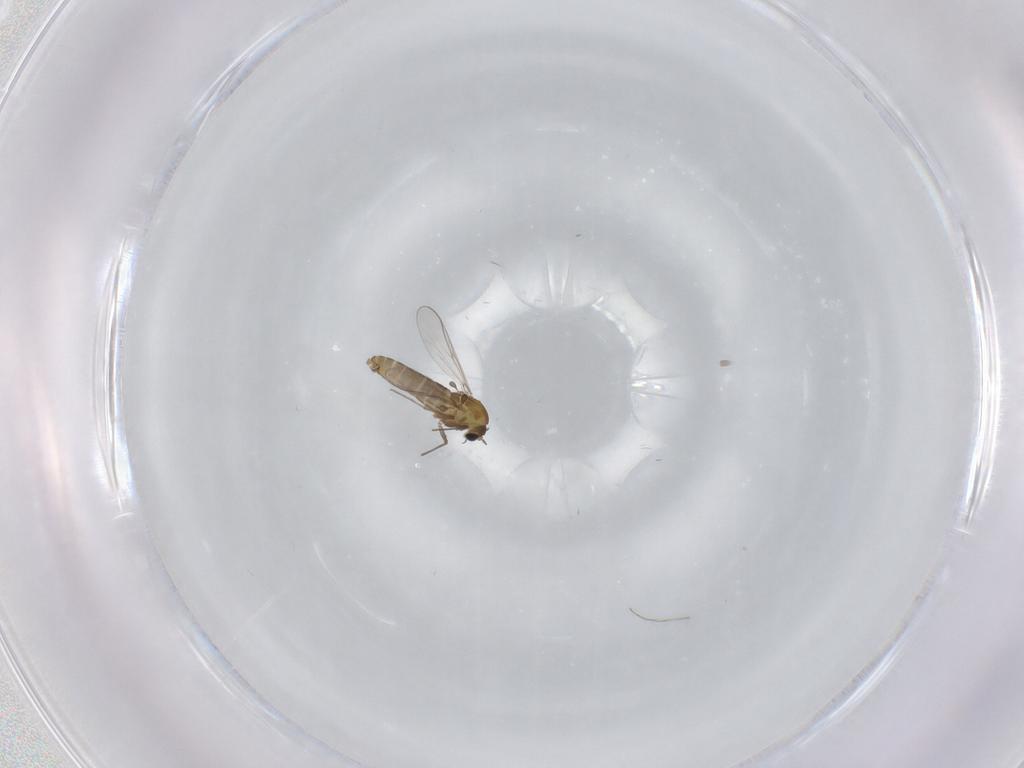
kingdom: Animalia
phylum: Arthropoda
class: Insecta
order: Diptera
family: Chironomidae
